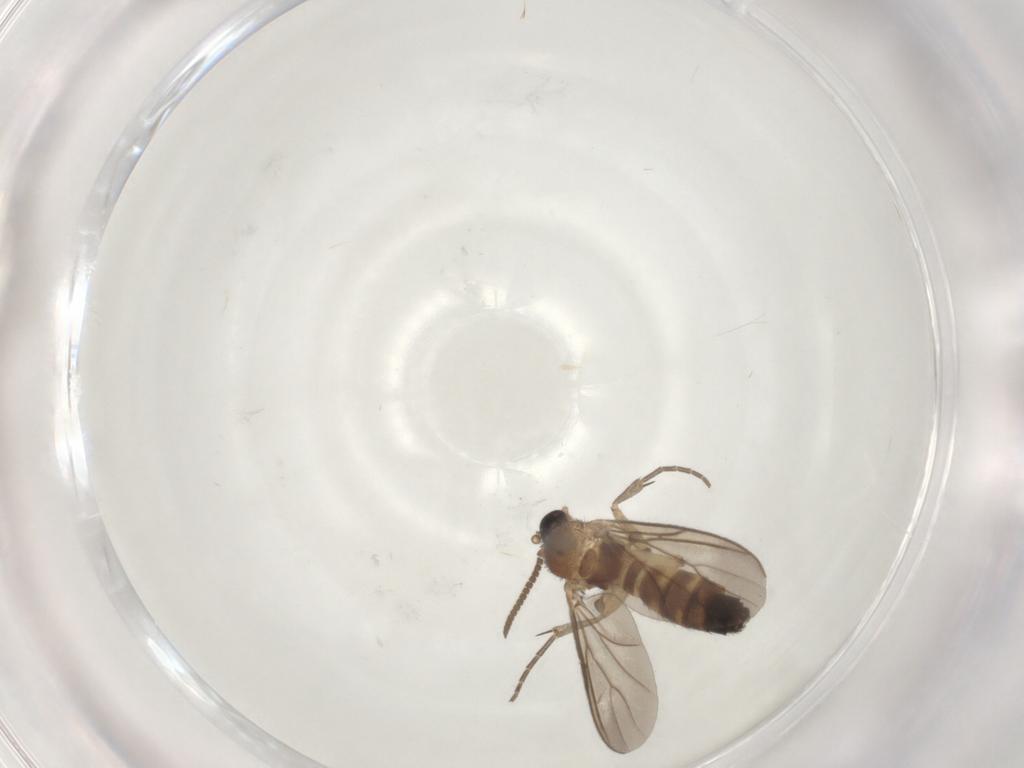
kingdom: Animalia
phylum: Arthropoda
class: Insecta
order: Diptera
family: Mycetophilidae
